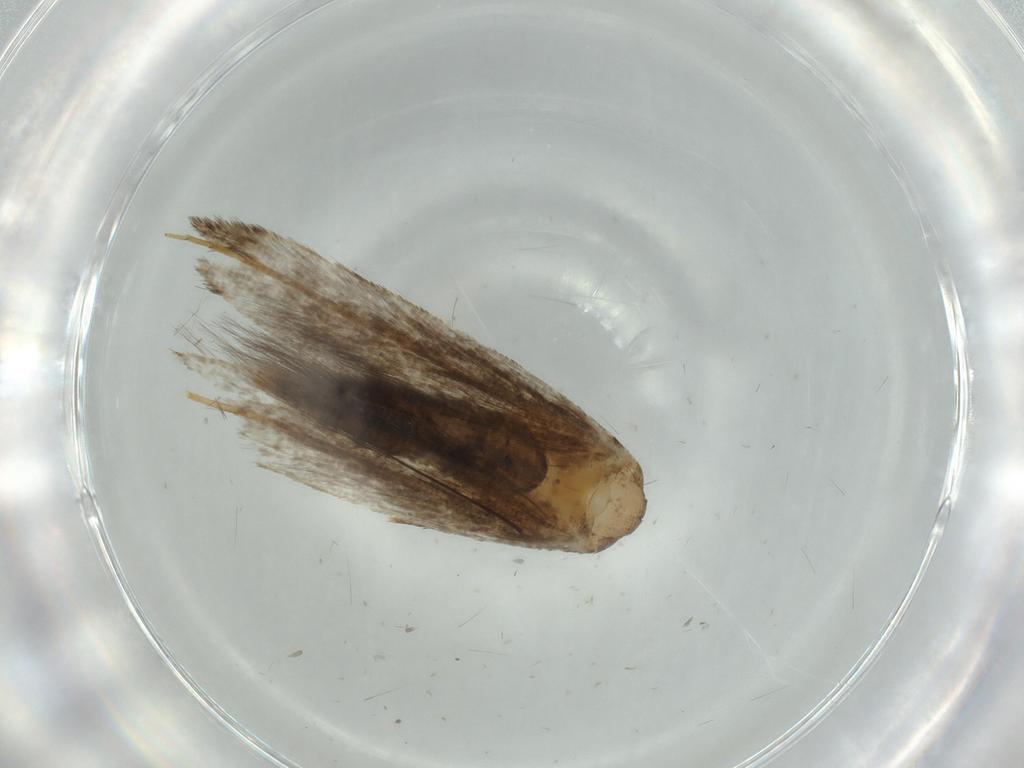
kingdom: Animalia
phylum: Arthropoda
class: Insecta
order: Lepidoptera
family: Tineidae
